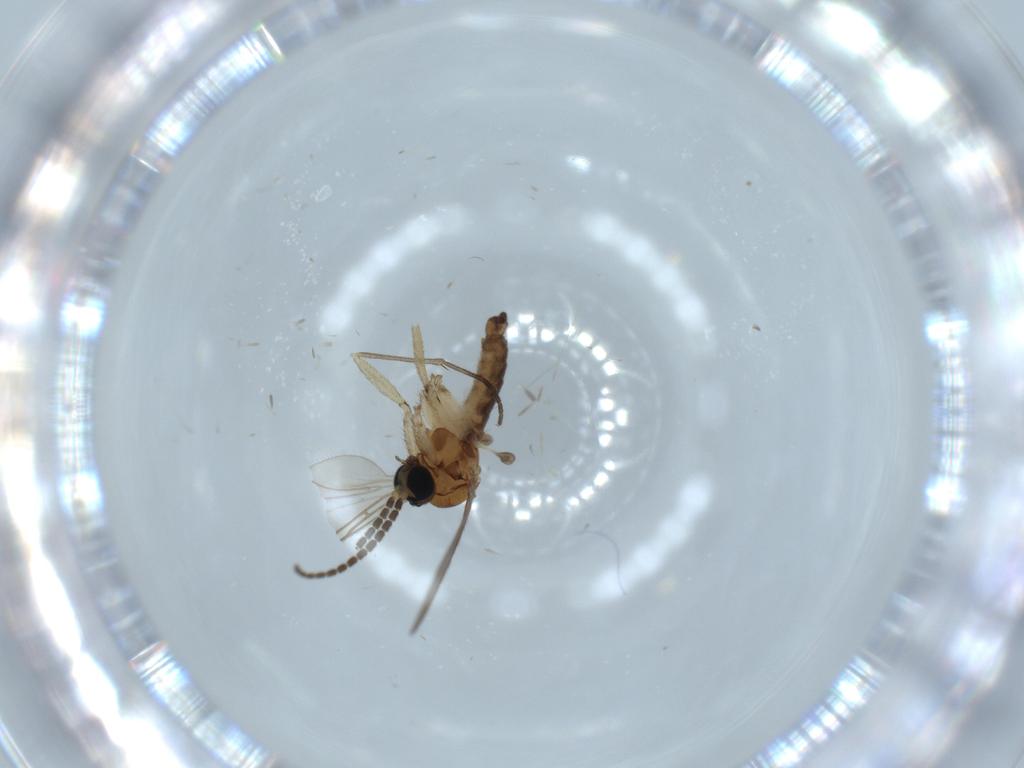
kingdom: Animalia
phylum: Arthropoda
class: Insecta
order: Diptera
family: Sciaridae
